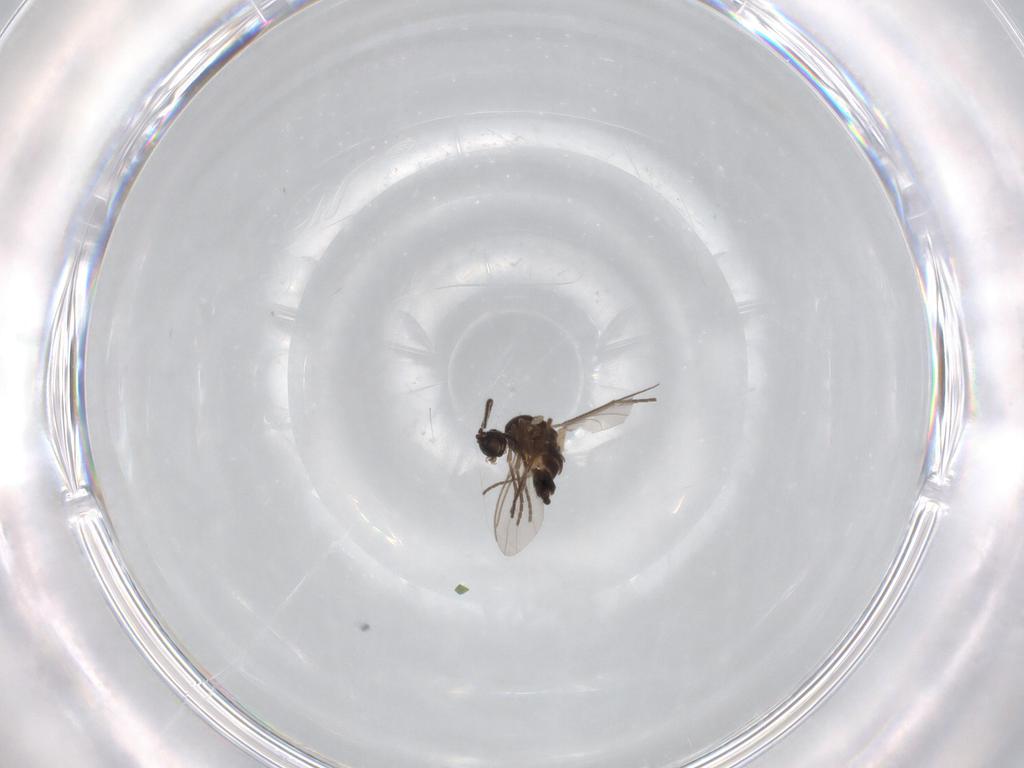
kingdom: Animalia
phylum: Arthropoda
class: Insecta
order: Diptera
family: Sciaridae
